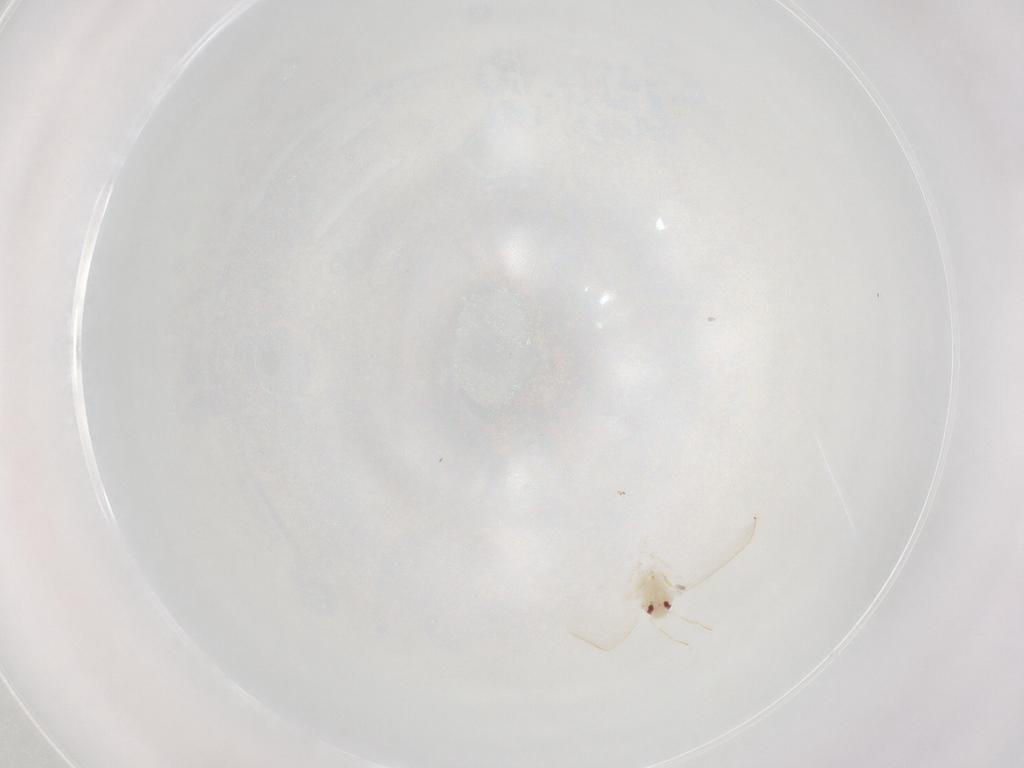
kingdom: Animalia
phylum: Arthropoda
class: Insecta
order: Hemiptera
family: Aleyrodidae
